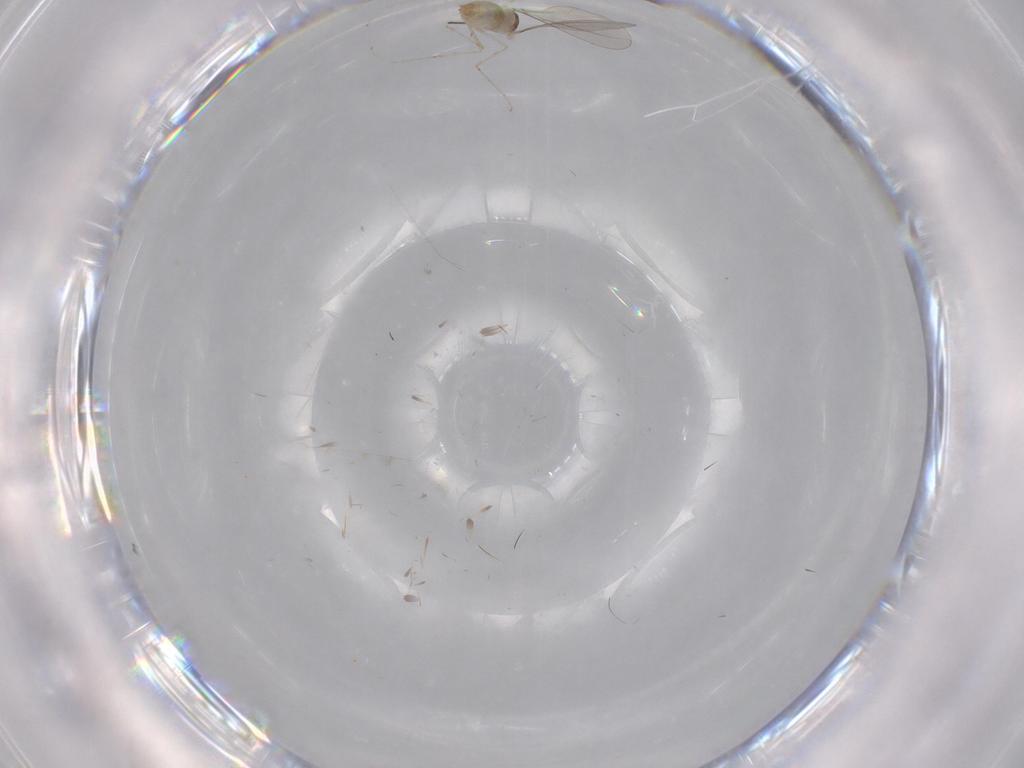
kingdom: Animalia
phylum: Arthropoda
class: Insecta
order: Diptera
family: Cecidomyiidae
